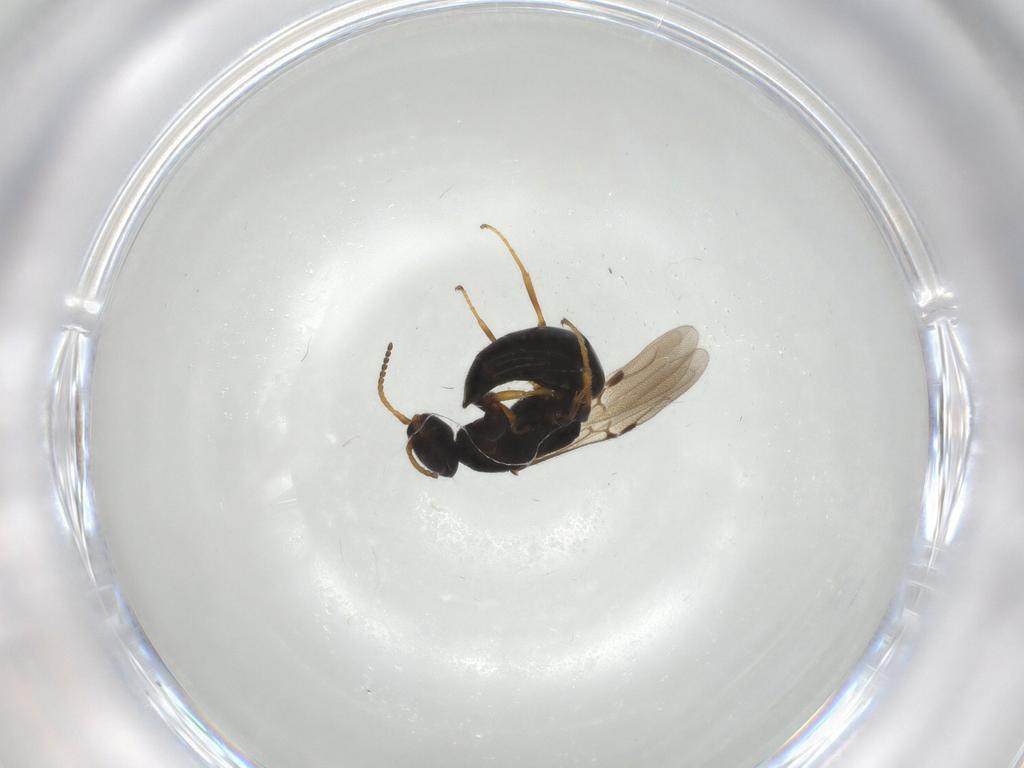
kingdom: Animalia
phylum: Arthropoda
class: Insecta
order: Hymenoptera
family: Bethylidae
